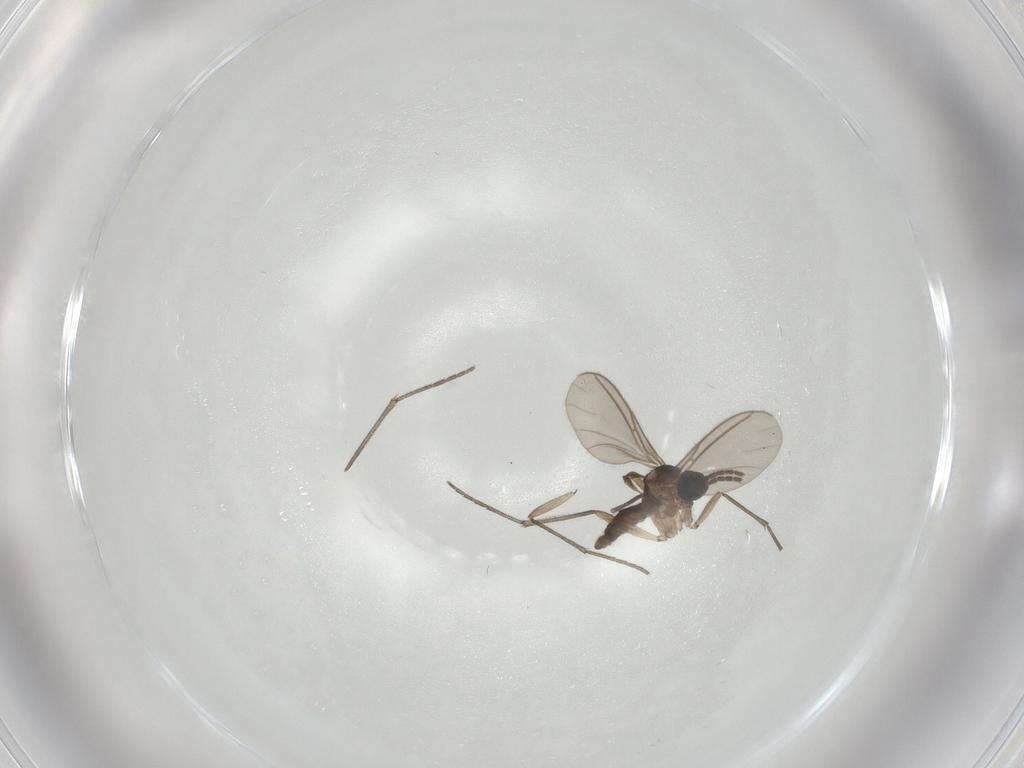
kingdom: Animalia
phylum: Arthropoda
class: Insecta
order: Diptera
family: Sciaridae
